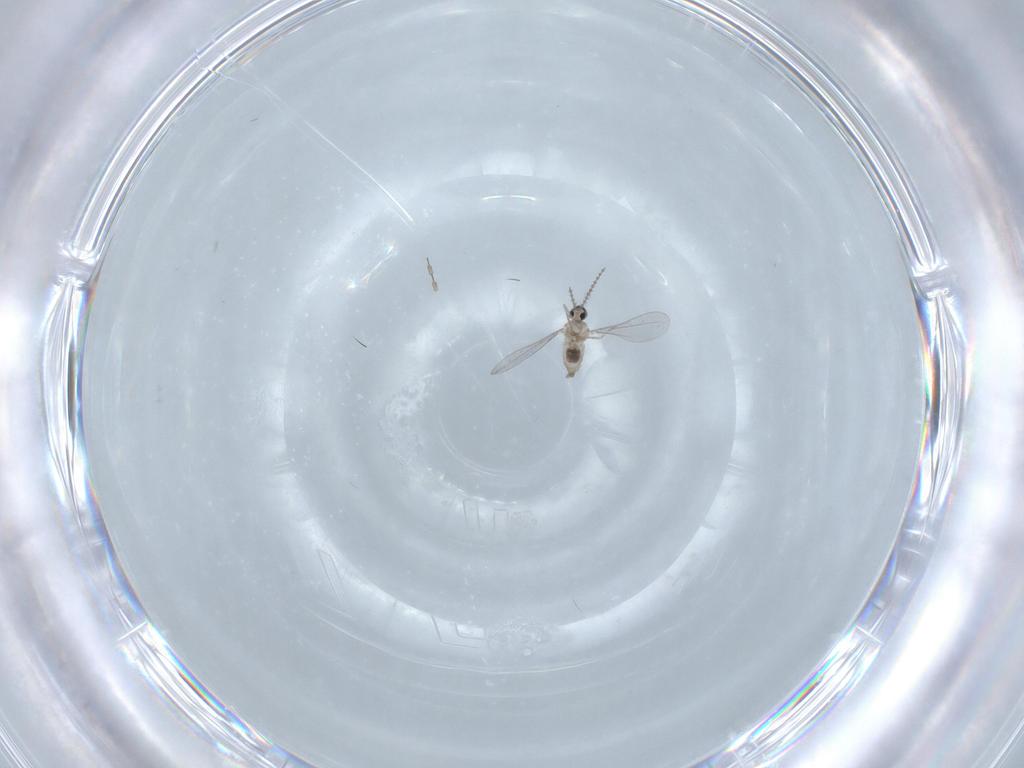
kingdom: Animalia
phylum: Arthropoda
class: Insecta
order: Diptera
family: Cecidomyiidae
